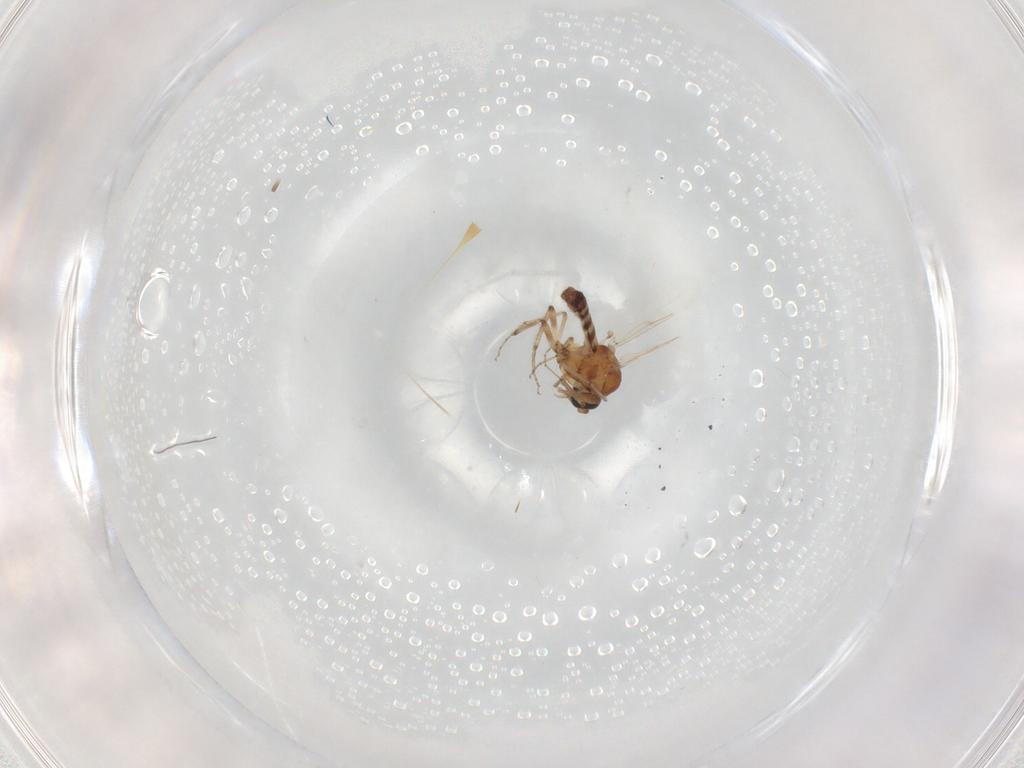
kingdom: Animalia
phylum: Arthropoda
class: Insecta
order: Diptera
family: Ceratopogonidae
